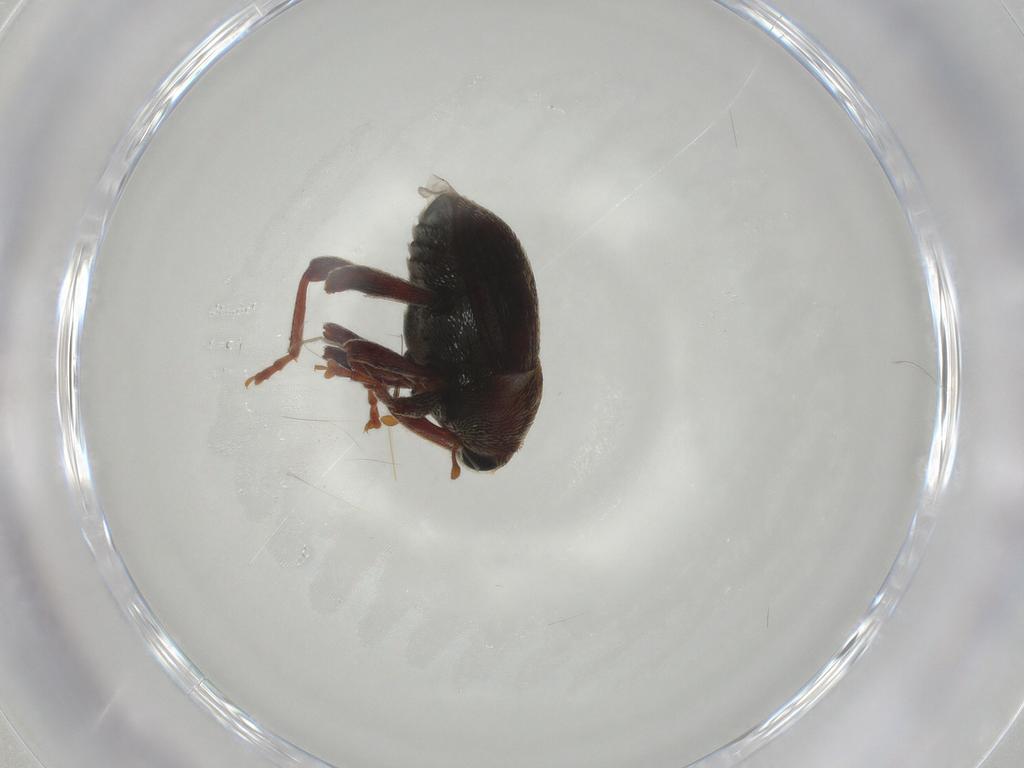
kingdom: Animalia
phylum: Arthropoda
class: Insecta
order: Coleoptera
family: Curculionidae
